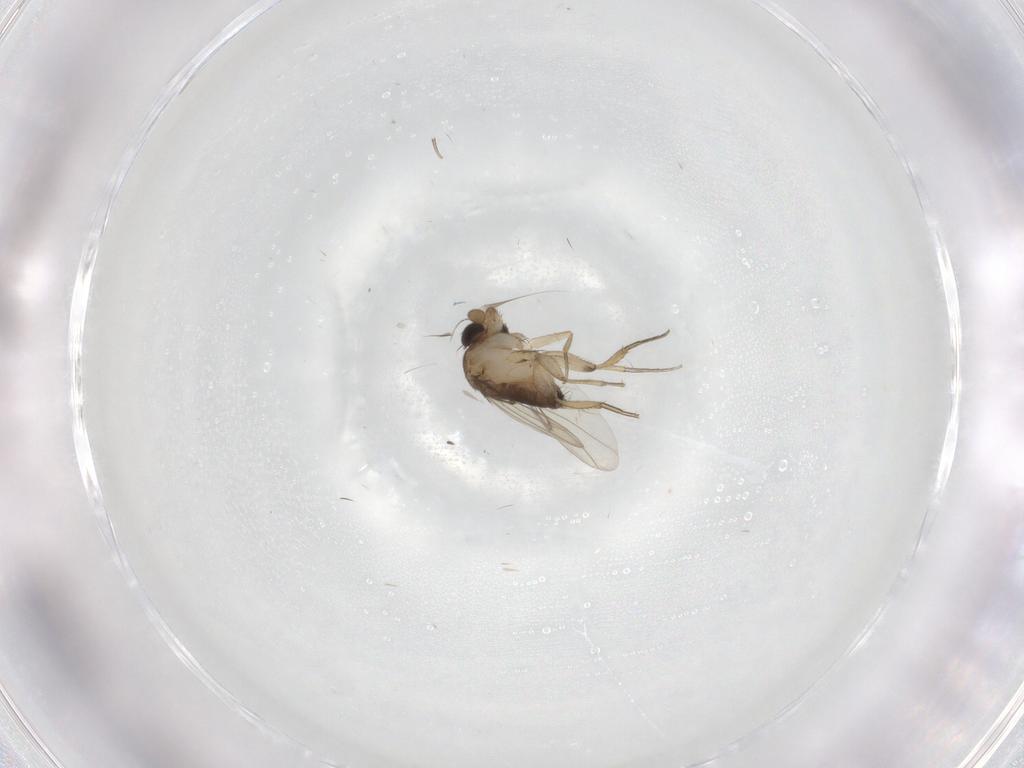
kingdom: Animalia
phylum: Arthropoda
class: Insecta
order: Diptera
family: Phoridae
